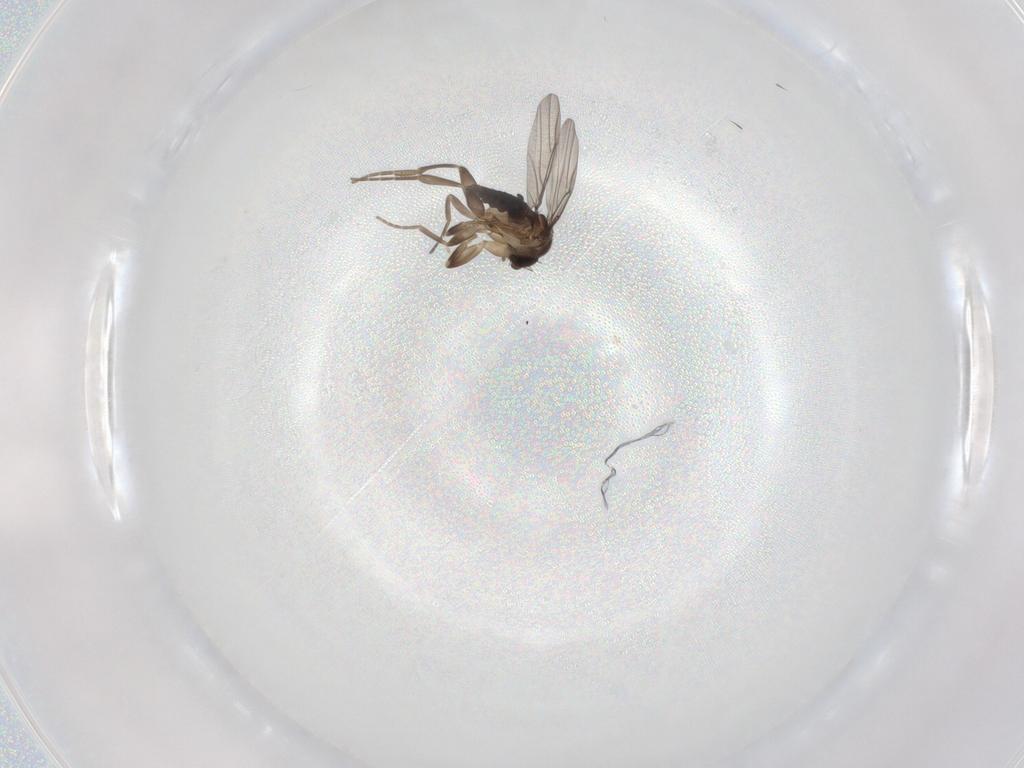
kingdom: Animalia
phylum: Arthropoda
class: Insecta
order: Diptera
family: Phoridae
